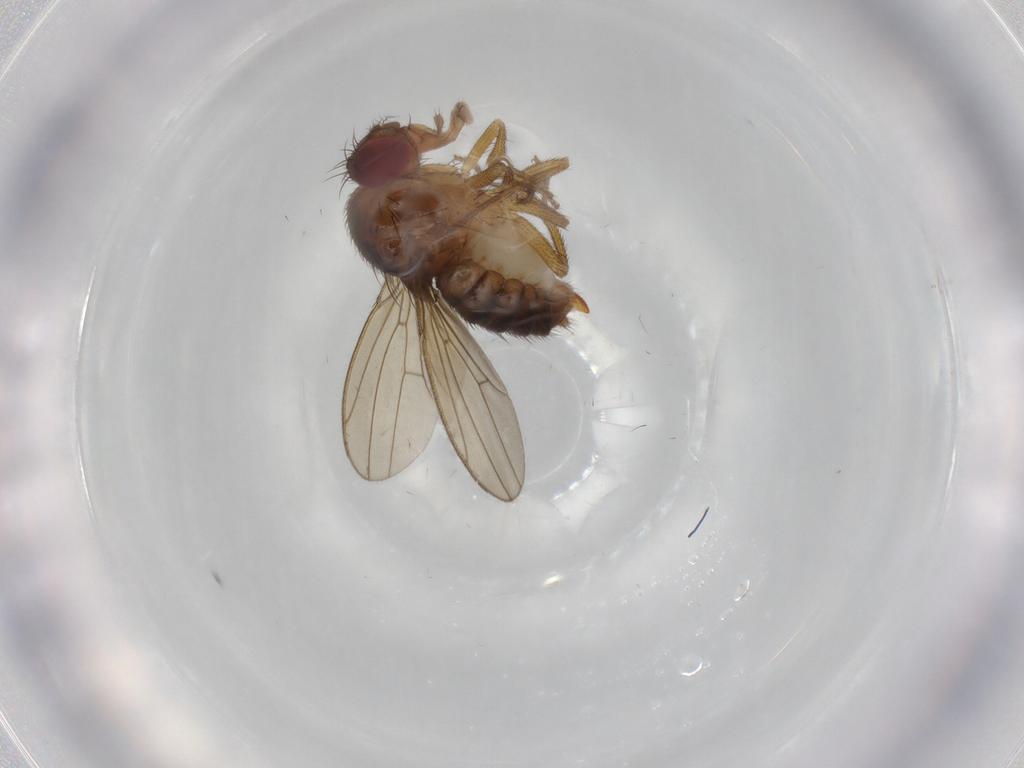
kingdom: Animalia
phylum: Arthropoda
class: Insecta
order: Diptera
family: Drosophilidae
